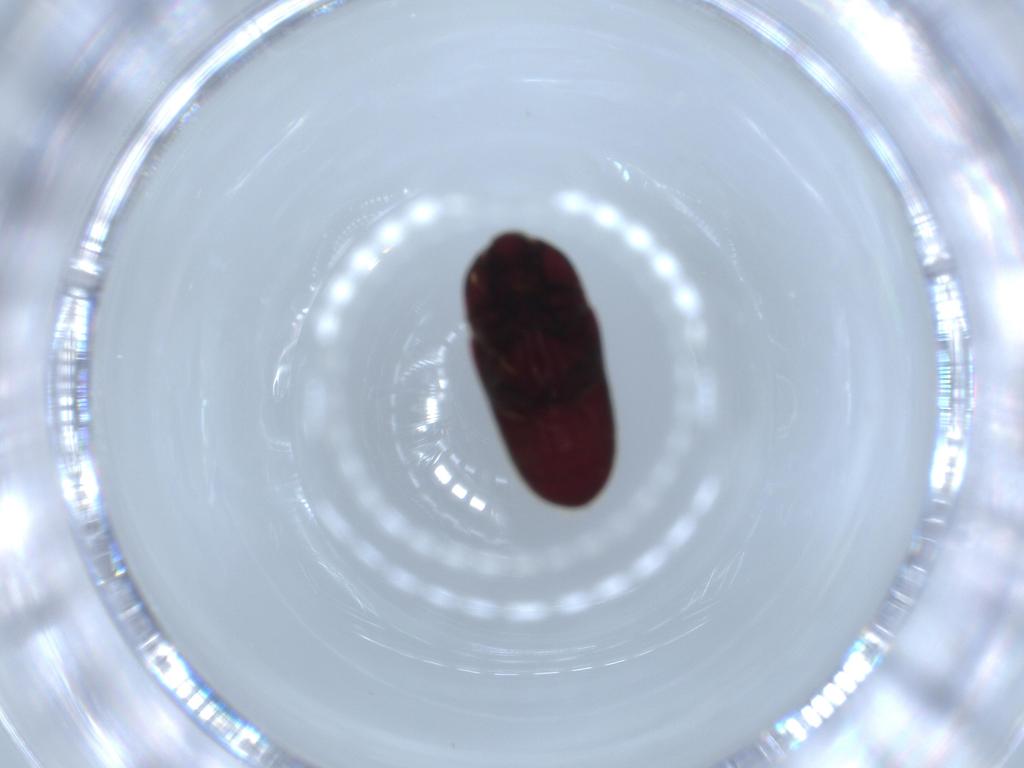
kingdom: Animalia
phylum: Arthropoda
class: Insecta
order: Coleoptera
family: Throscidae
